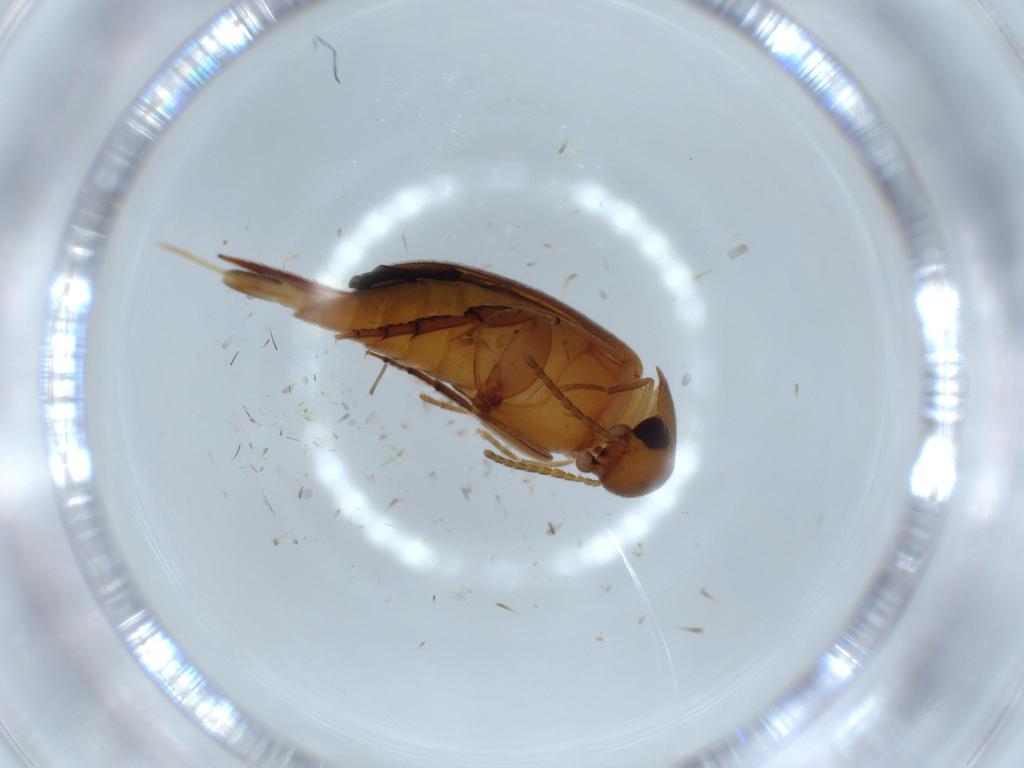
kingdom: Animalia
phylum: Arthropoda
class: Insecta
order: Coleoptera
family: Mordellidae
